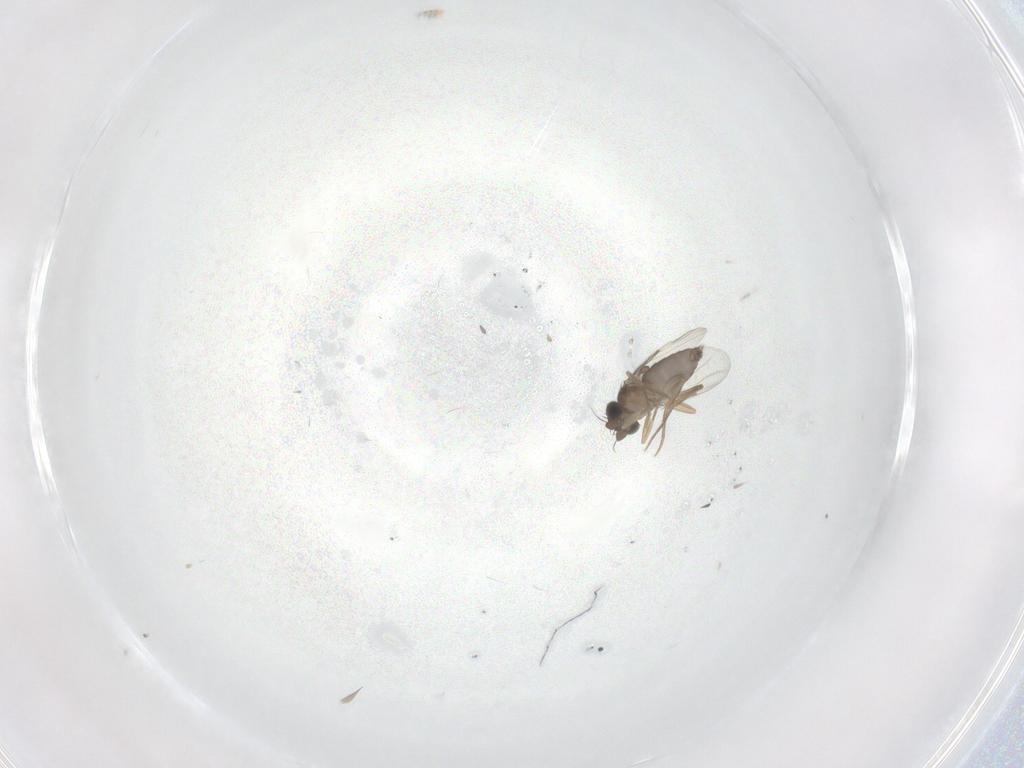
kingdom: Animalia
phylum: Arthropoda
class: Insecta
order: Diptera
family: Phoridae
